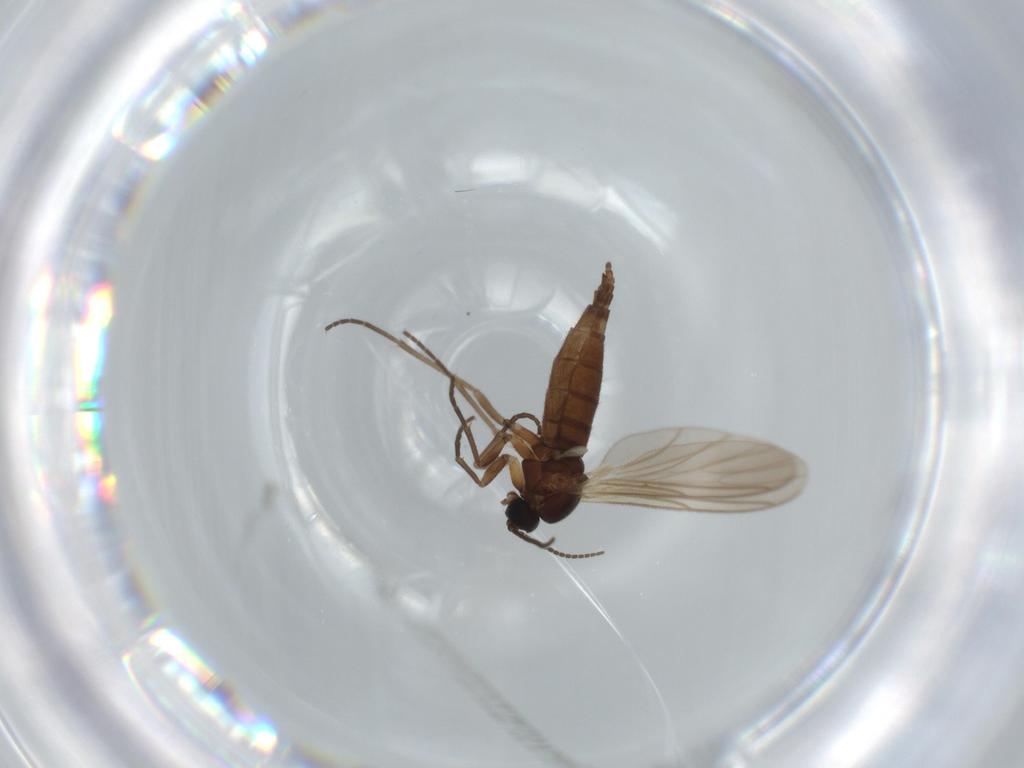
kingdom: Animalia
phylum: Arthropoda
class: Insecta
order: Diptera
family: Sciaridae
